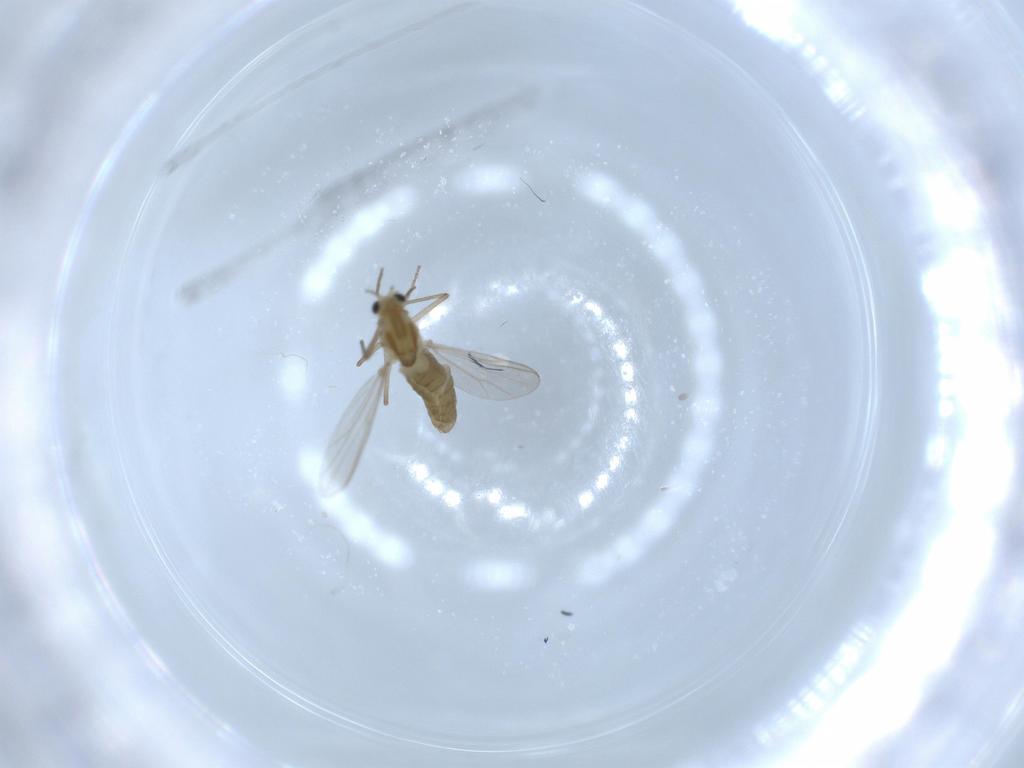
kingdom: Animalia
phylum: Arthropoda
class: Insecta
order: Diptera
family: Chironomidae
